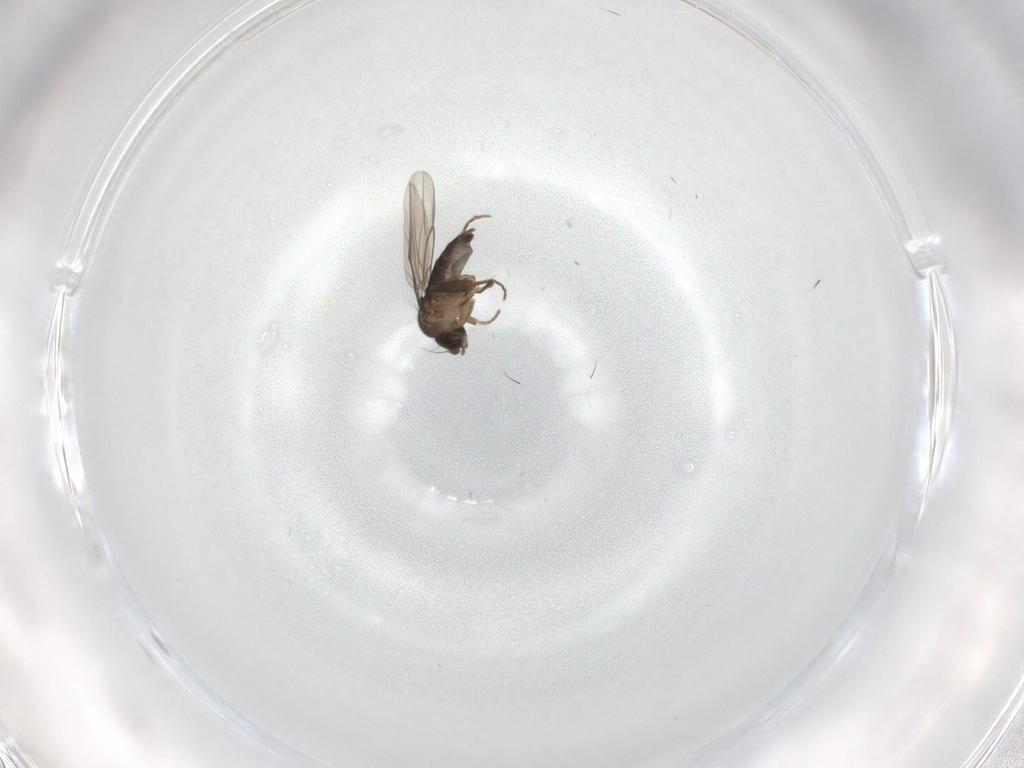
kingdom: Animalia
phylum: Arthropoda
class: Insecta
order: Diptera
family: Phoridae
